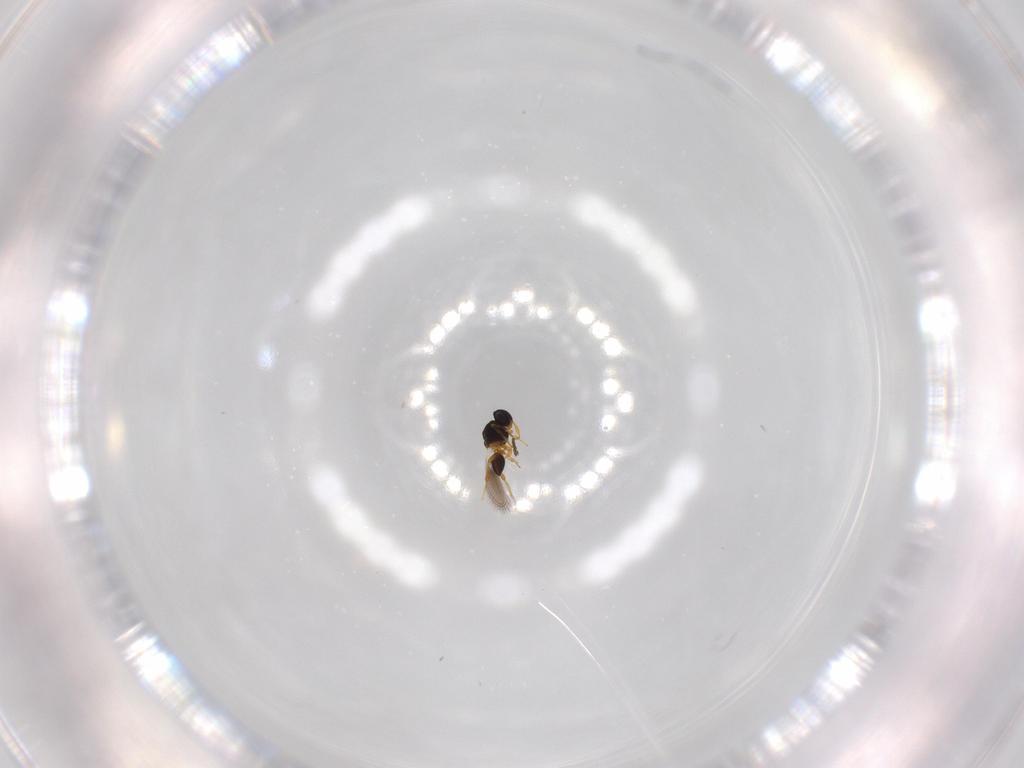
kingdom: Animalia
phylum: Arthropoda
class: Insecta
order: Hymenoptera
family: Platygastridae
